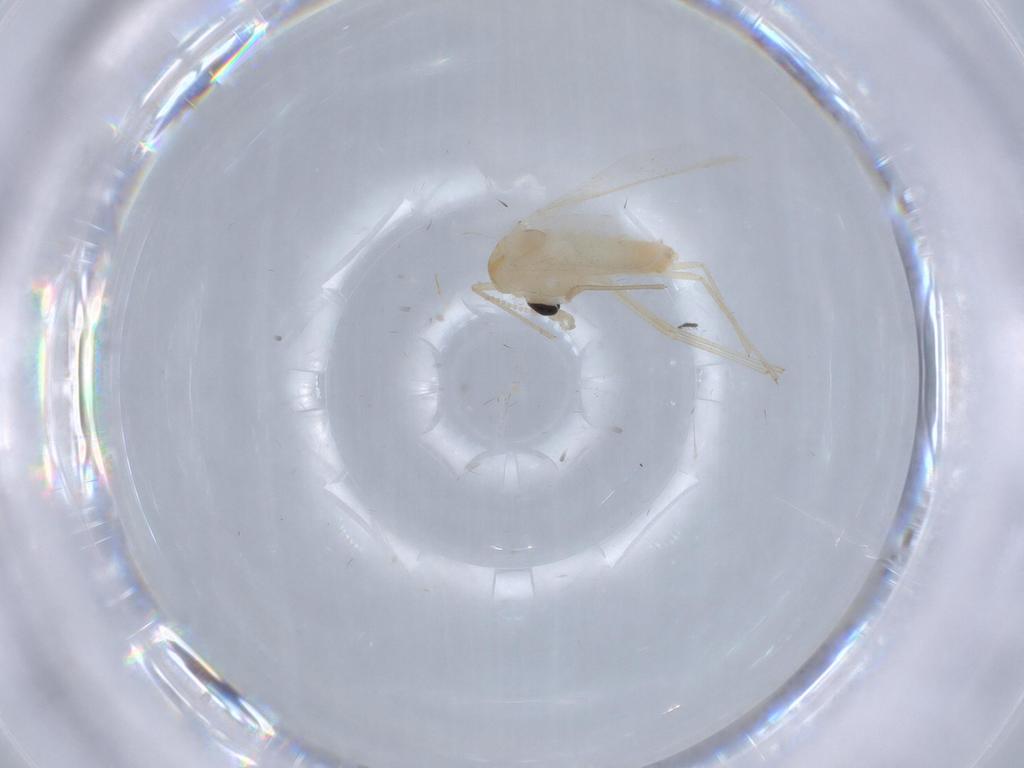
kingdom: Animalia
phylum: Arthropoda
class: Insecta
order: Diptera
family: Chironomidae
